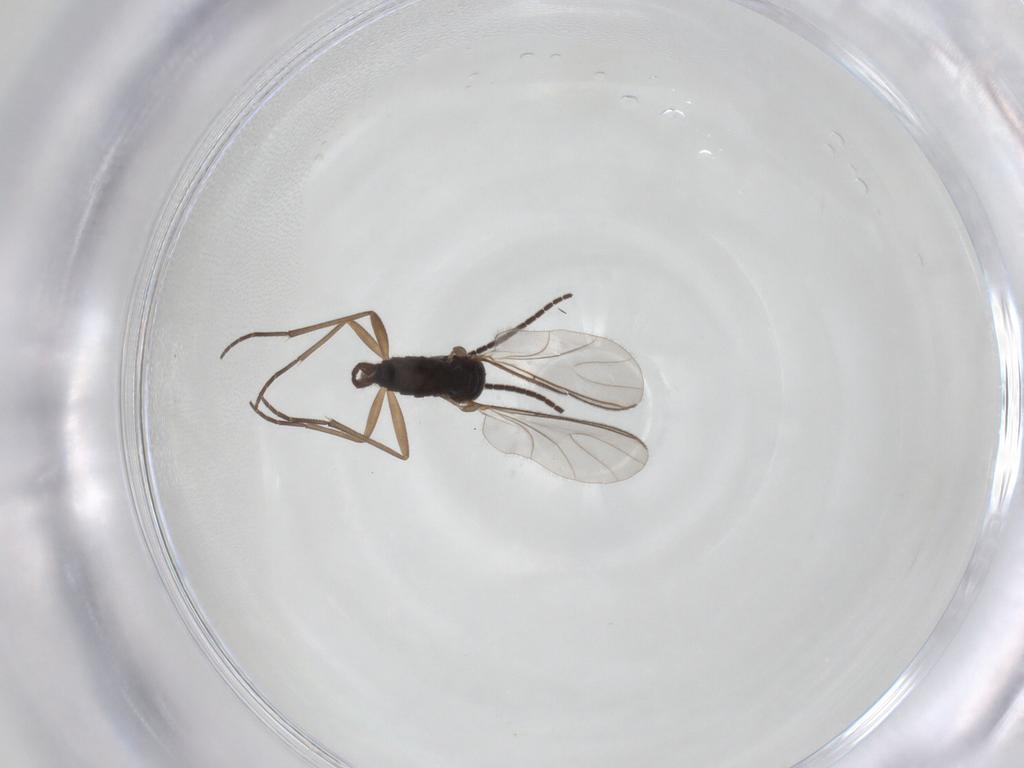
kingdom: Animalia
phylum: Arthropoda
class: Insecta
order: Diptera
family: Sciaridae
